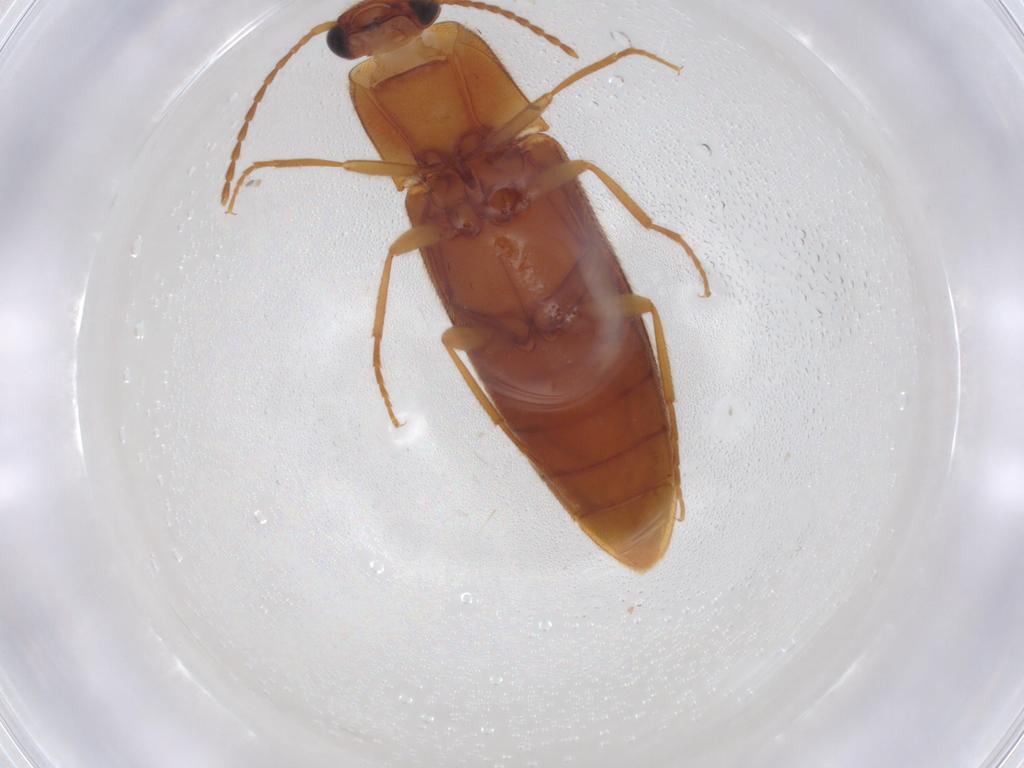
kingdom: Animalia
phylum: Arthropoda
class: Insecta
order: Coleoptera
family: Elateridae
